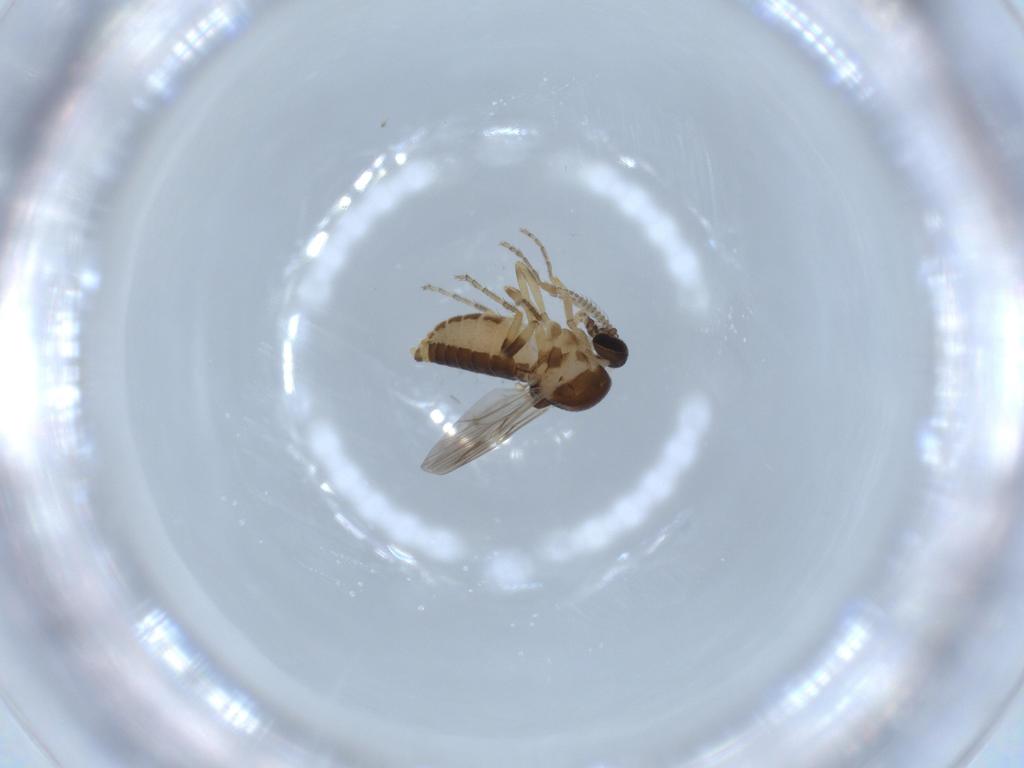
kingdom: Animalia
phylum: Arthropoda
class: Insecta
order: Diptera
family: Ceratopogonidae
